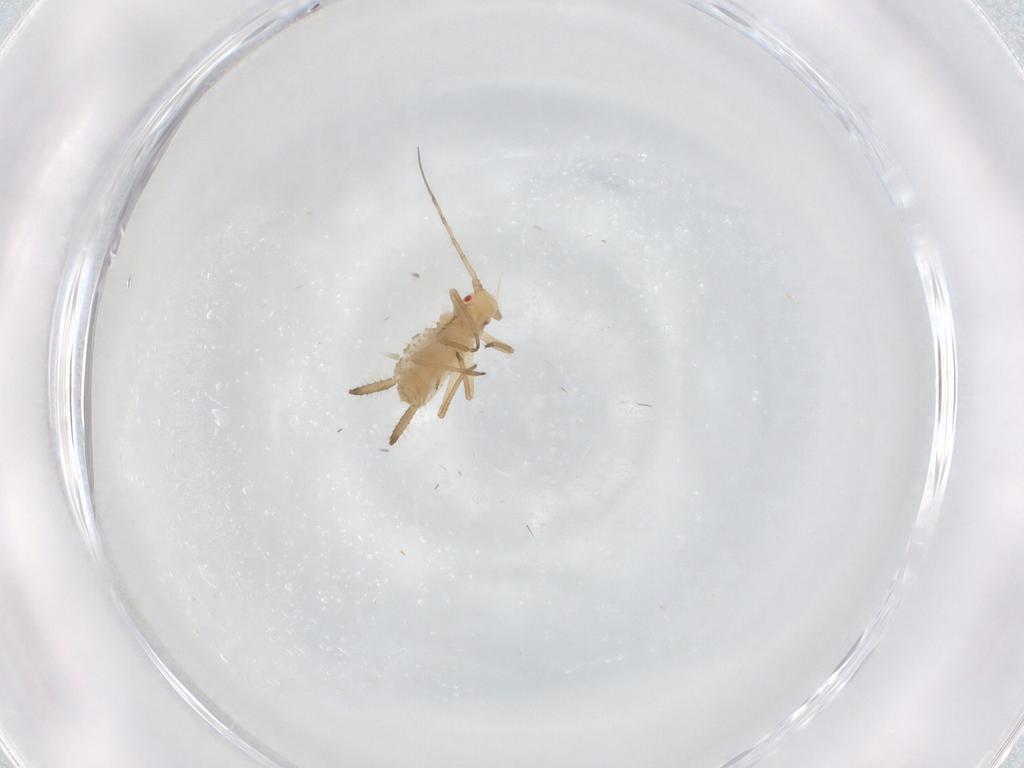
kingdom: Animalia
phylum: Arthropoda
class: Insecta
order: Hemiptera
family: Aphididae
